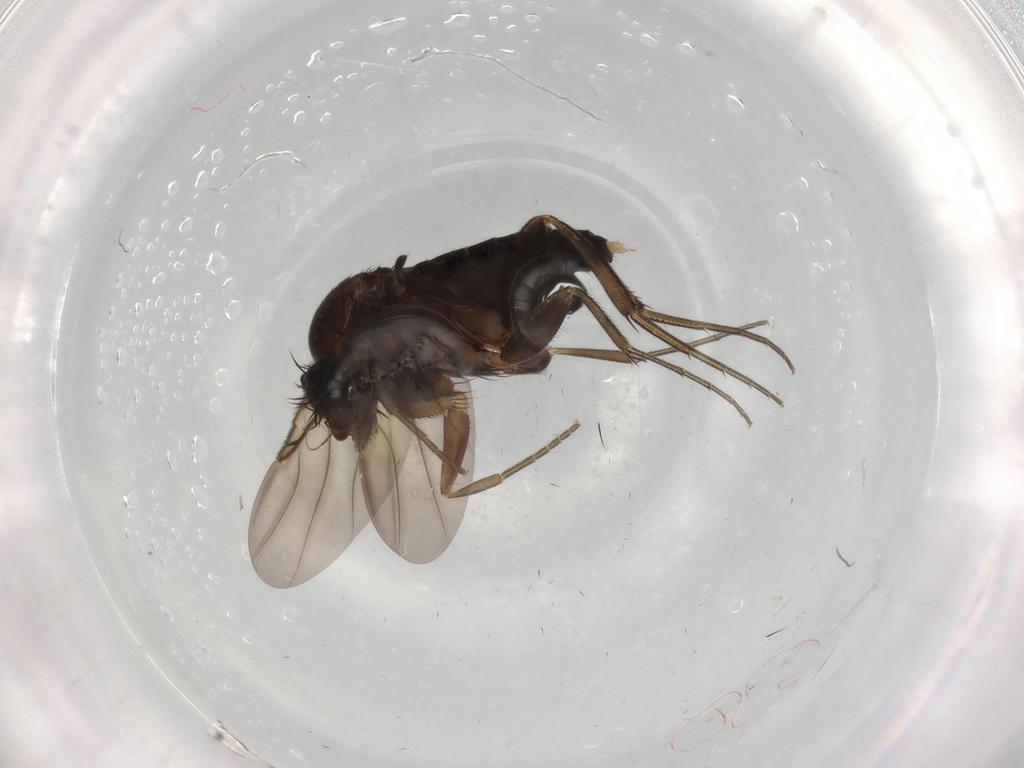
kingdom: Animalia
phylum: Arthropoda
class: Insecta
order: Diptera
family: Phoridae
